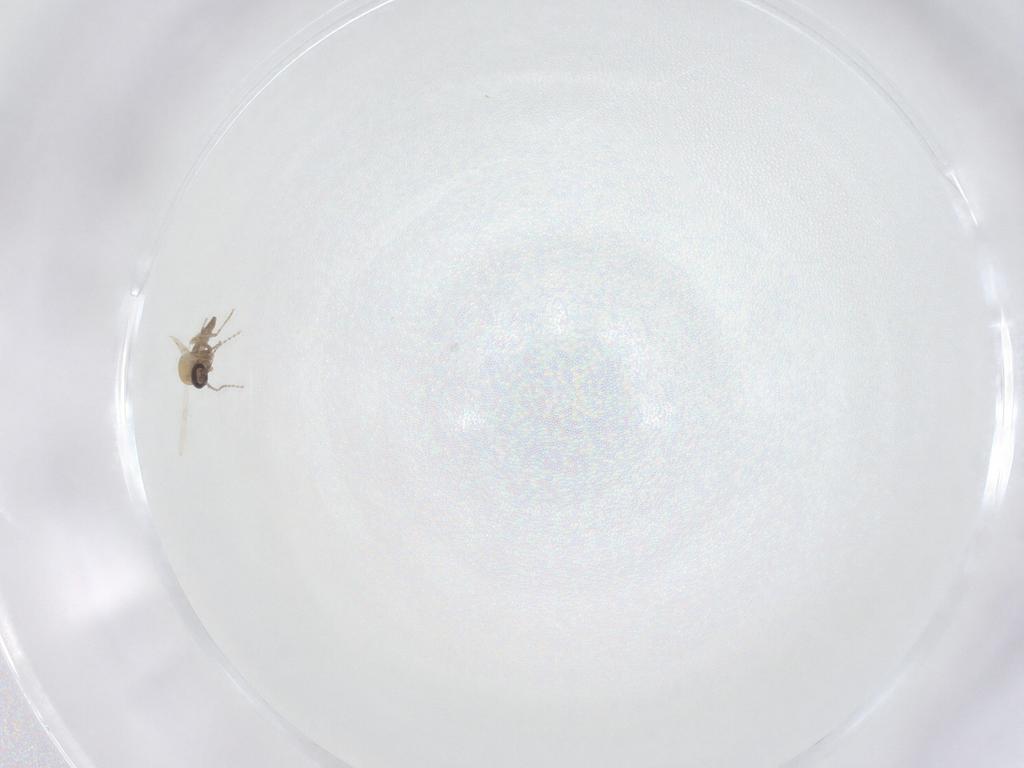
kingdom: Animalia
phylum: Arthropoda
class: Insecta
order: Diptera
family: Ceratopogonidae
